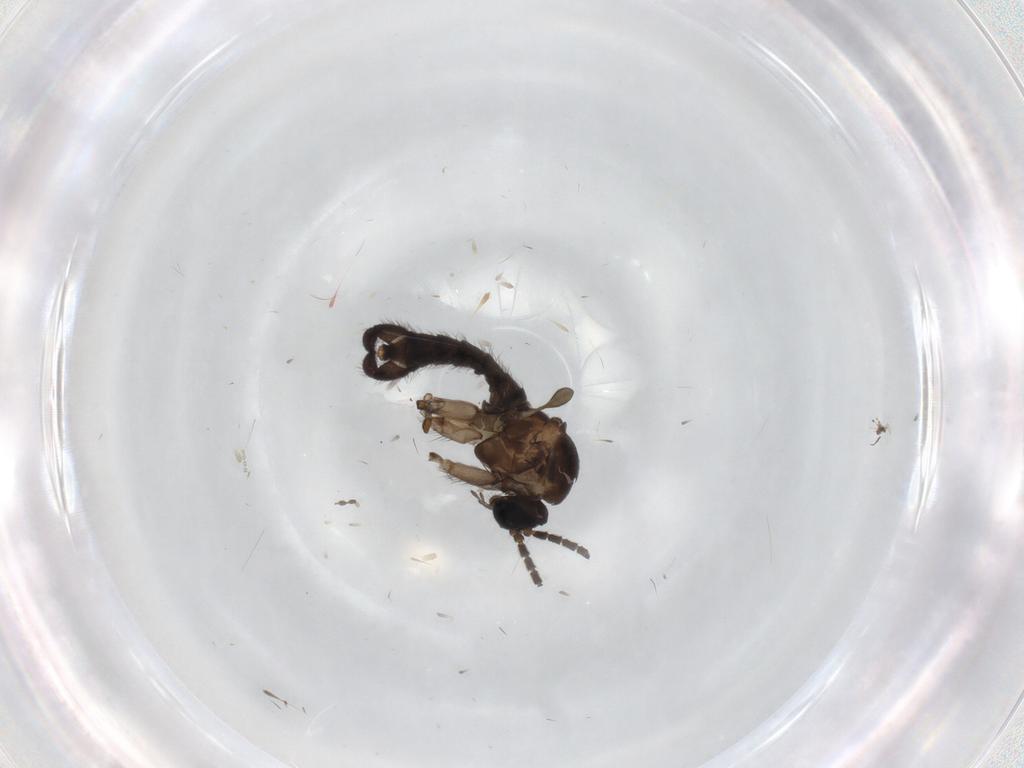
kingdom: Animalia
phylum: Arthropoda
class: Insecta
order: Diptera
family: Sciaridae
